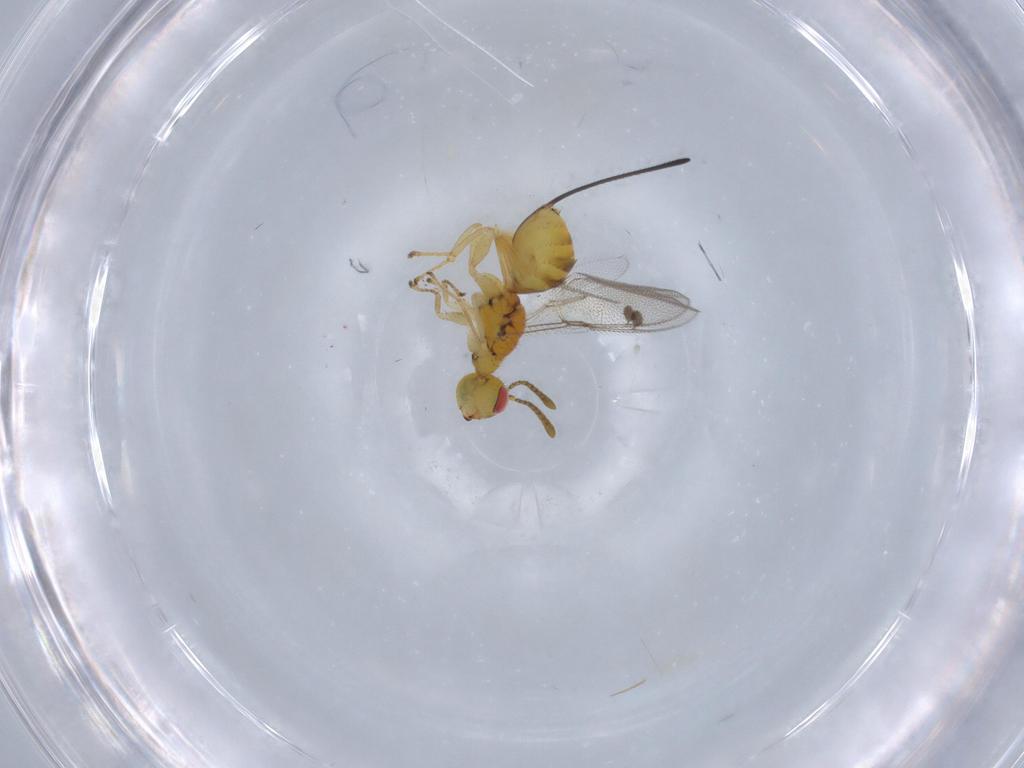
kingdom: Animalia
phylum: Arthropoda
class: Insecta
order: Hymenoptera
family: Megastigmidae
